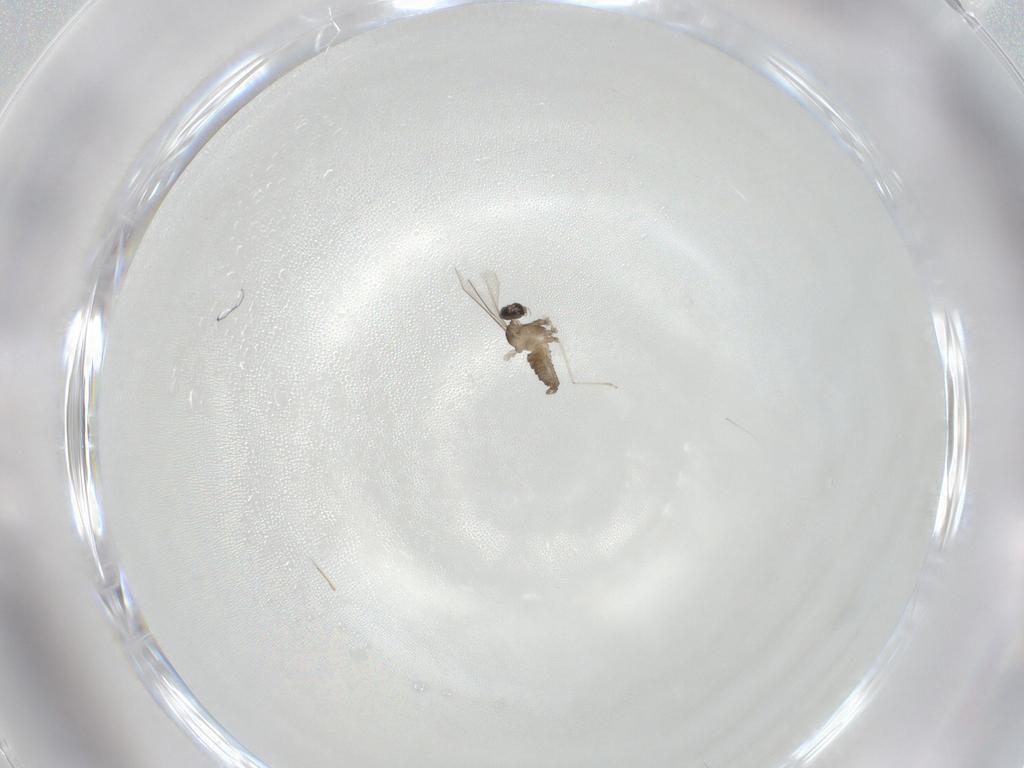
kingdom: Animalia
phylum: Arthropoda
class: Insecta
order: Diptera
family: Cecidomyiidae
